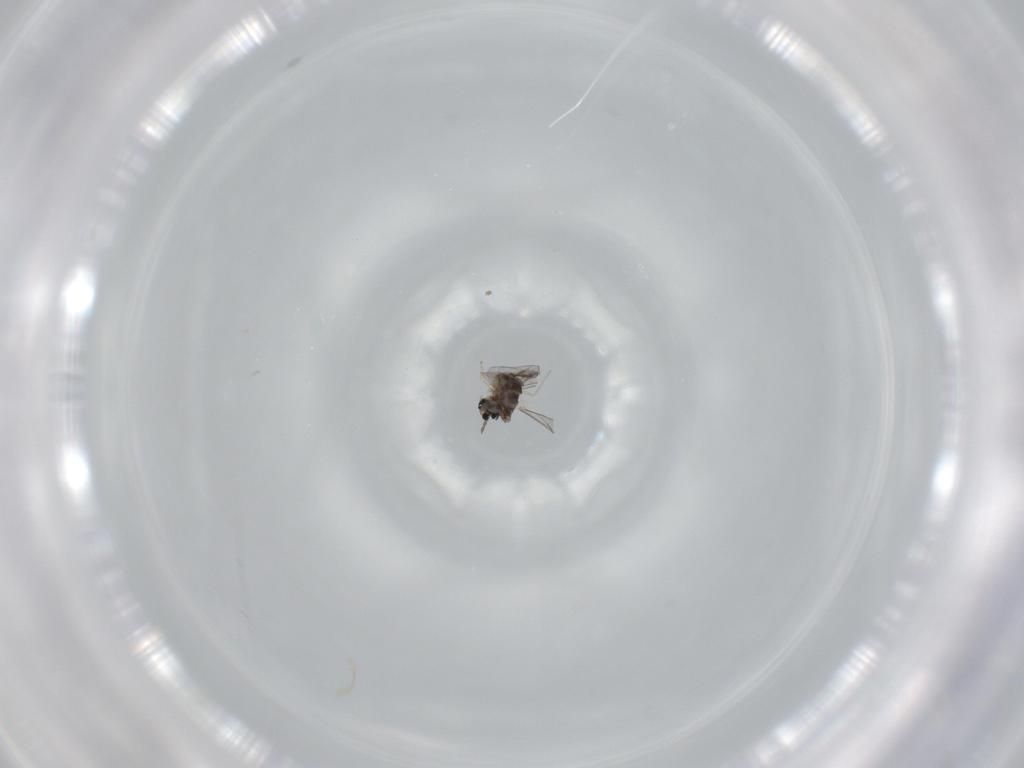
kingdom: Animalia
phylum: Arthropoda
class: Insecta
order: Diptera
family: Cecidomyiidae
